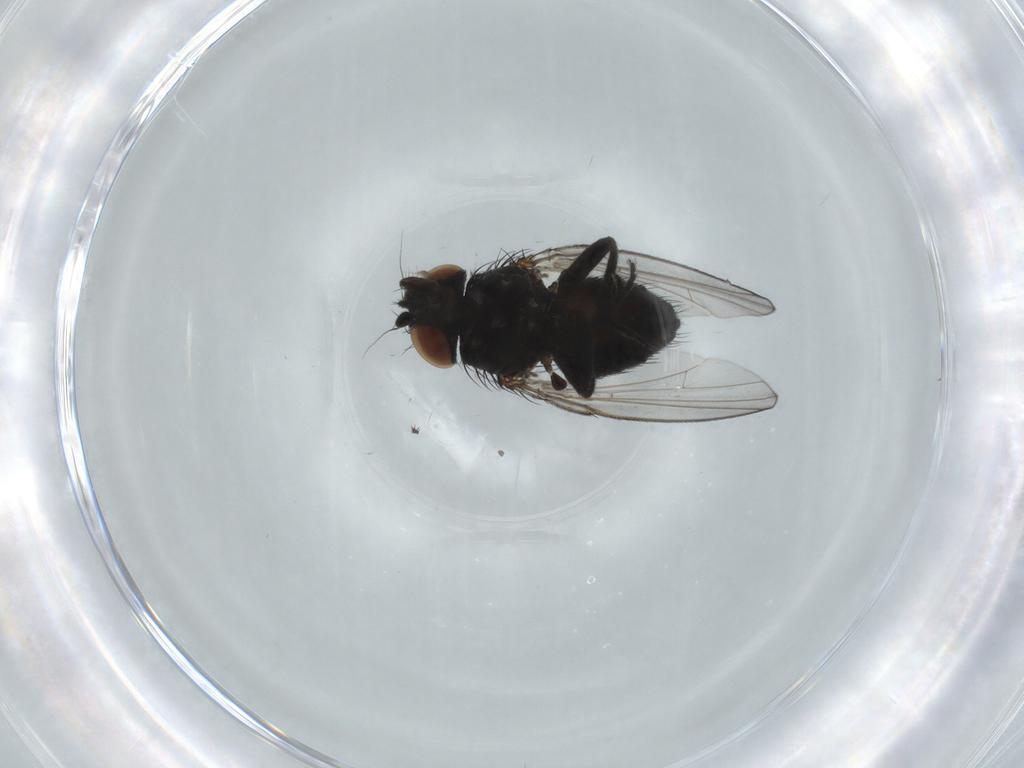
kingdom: Animalia
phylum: Arthropoda
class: Insecta
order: Diptera
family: Milichiidae
